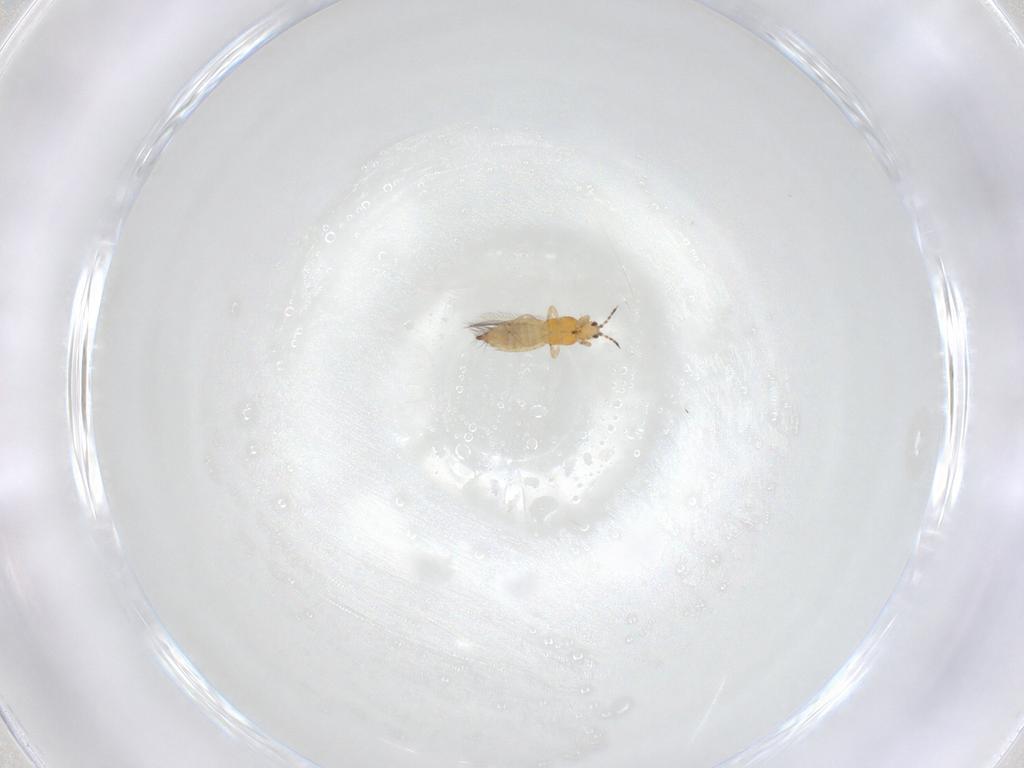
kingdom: Animalia
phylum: Arthropoda
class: Insecta
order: Thysanoptera
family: Thripidae
